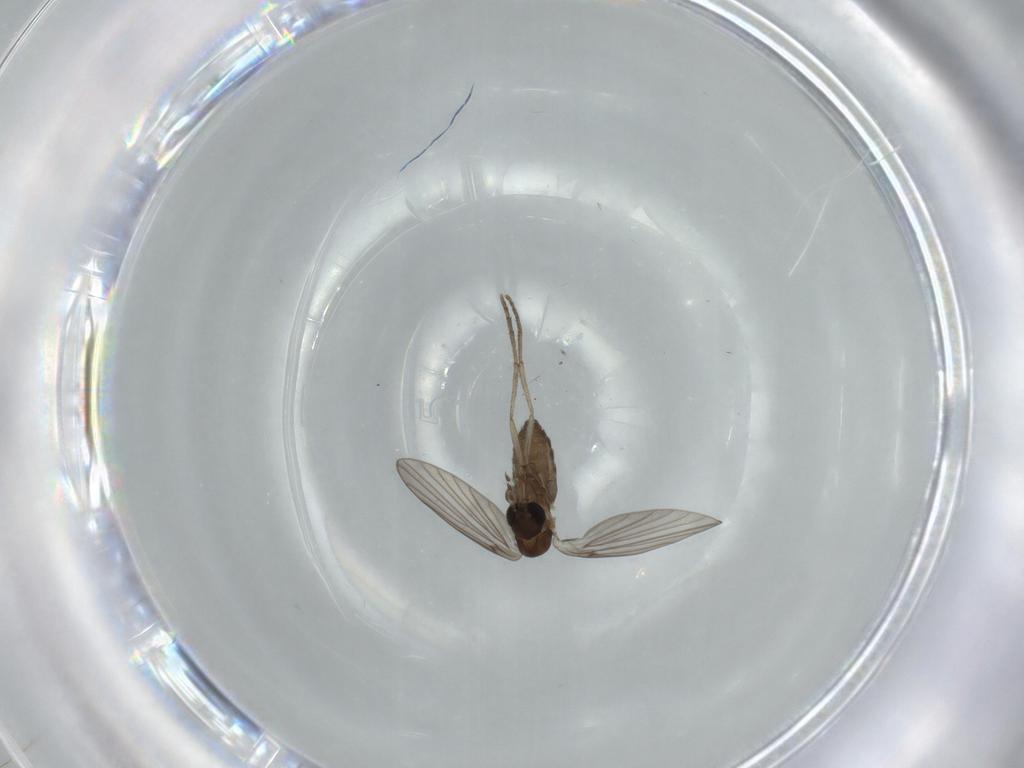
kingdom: Animalia
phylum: Arthropoda
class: Insecta
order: Diptera
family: Psychodidae
